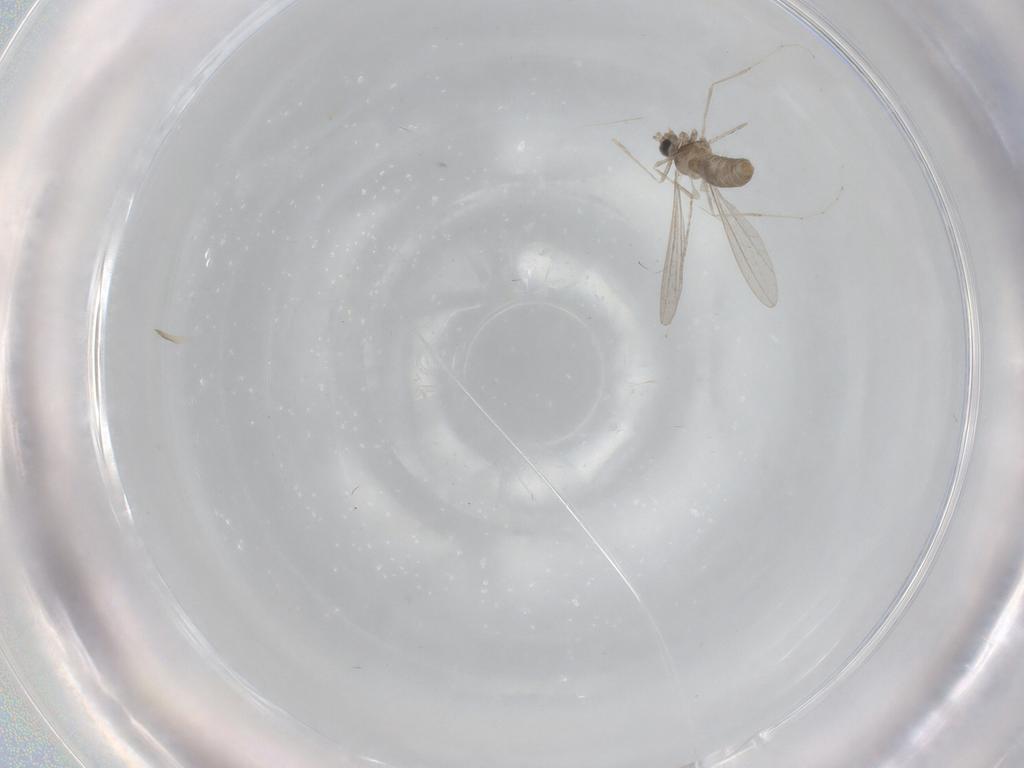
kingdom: Animalia
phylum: Arthropoda
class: Insecta
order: Diptera
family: Cecidomyiidae
